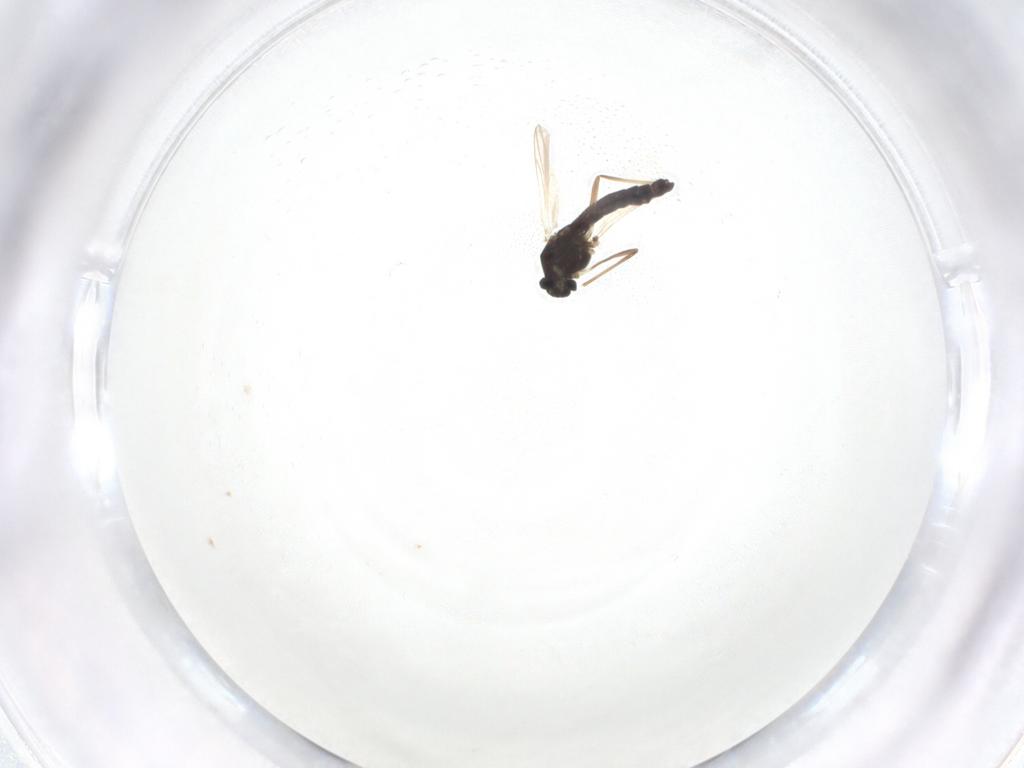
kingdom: Animalia
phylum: Arthropoda
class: Insecta
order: Diptera
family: Chironomidae
